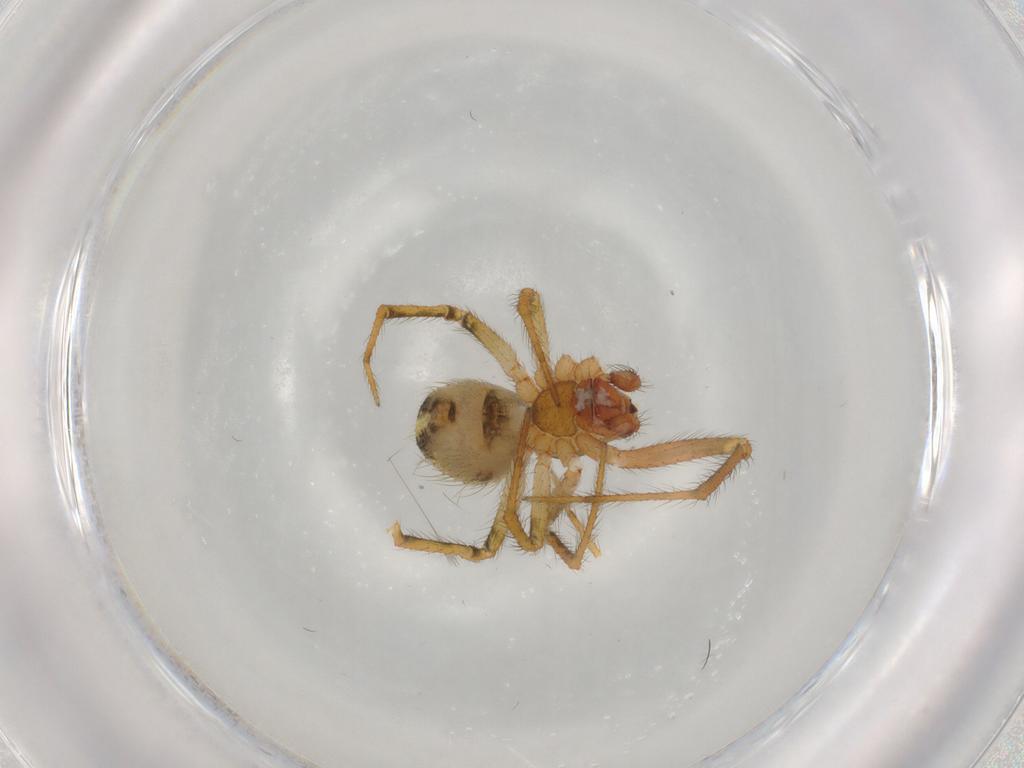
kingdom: Animalia
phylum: Arthropoda
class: Arachnida
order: Araneae
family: Theridiidae
